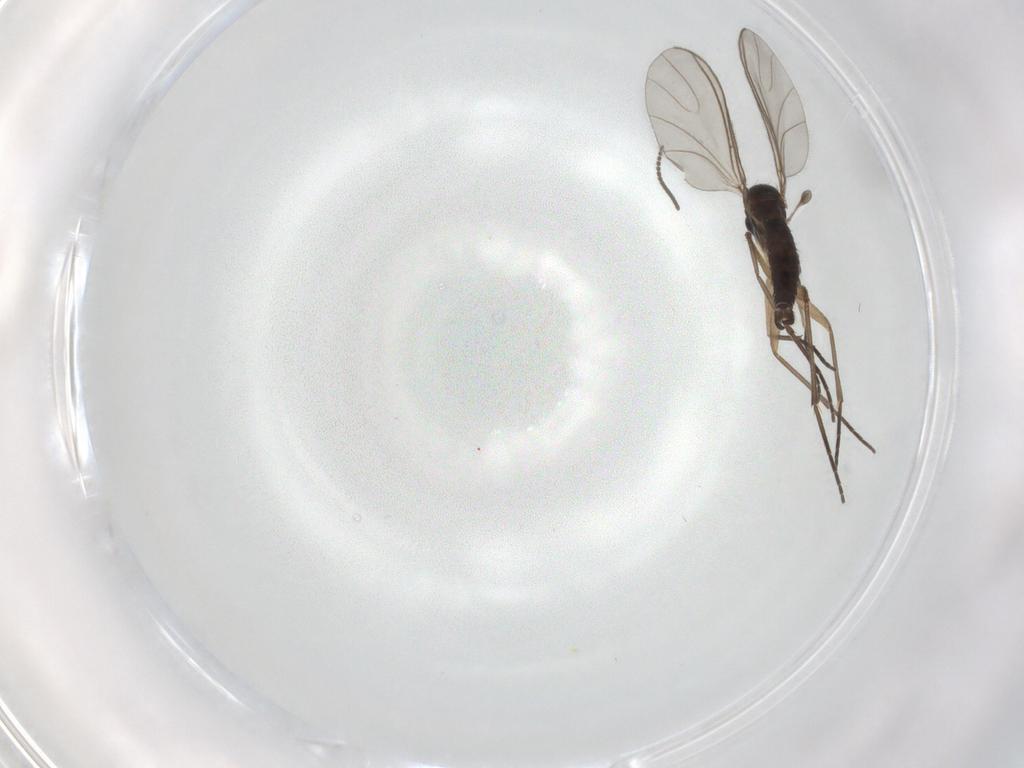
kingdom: Animalia
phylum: Arthropoda
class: Insecta
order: Diptera
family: Sciaridae
